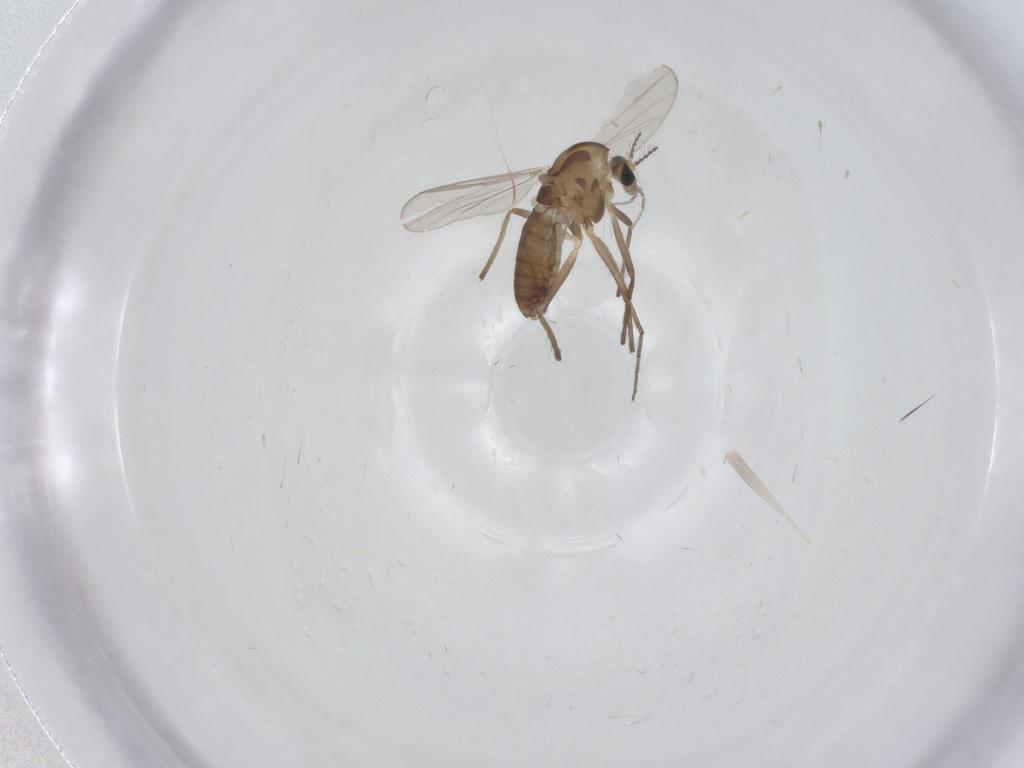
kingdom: Animalia
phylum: Arthropoda
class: Insecta
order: Diptera
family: Chironomidae
